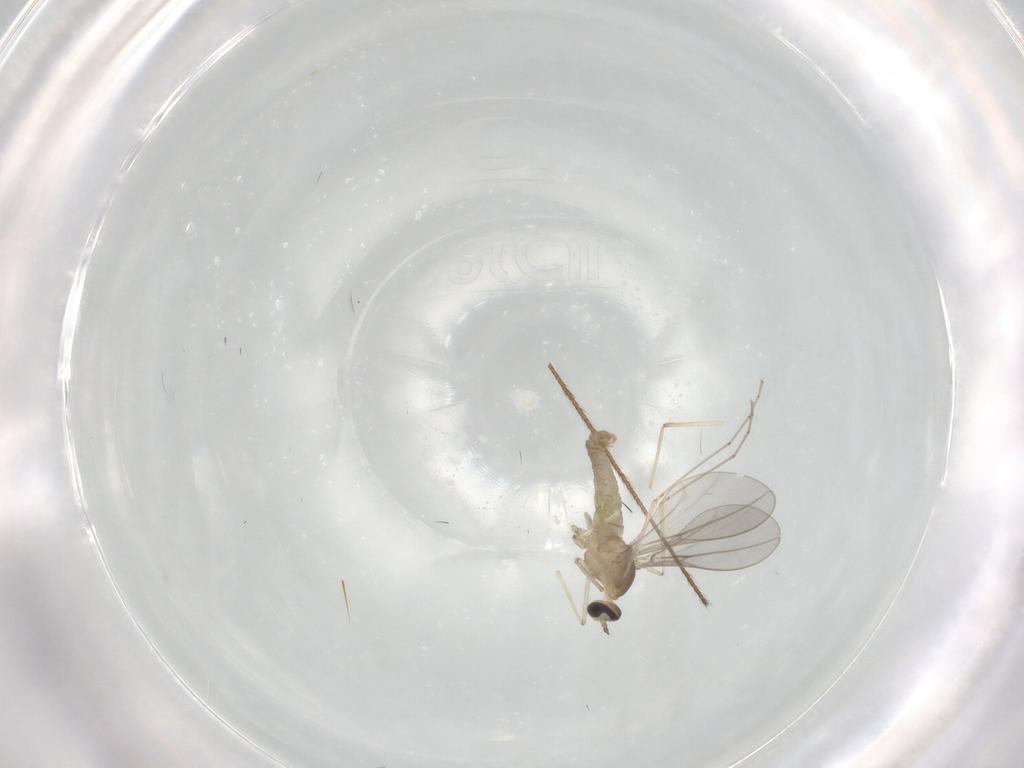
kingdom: Animalia
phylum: Arthropoda
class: Insecta
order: Diptera
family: Cecidomyiidae
